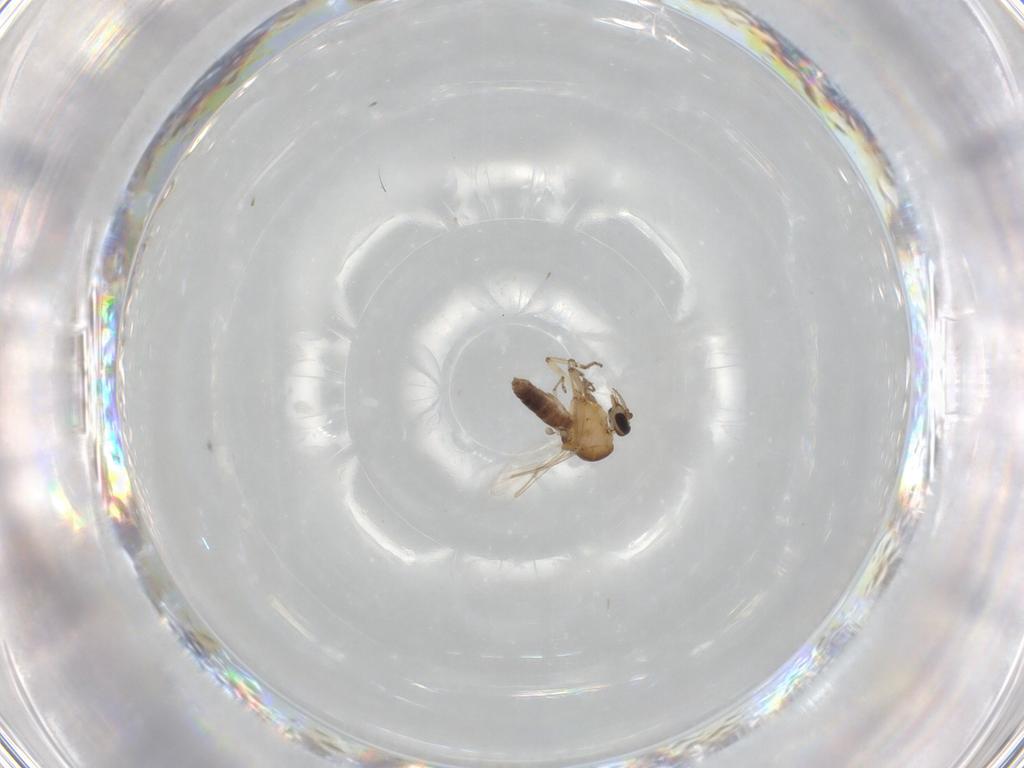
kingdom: Animalia
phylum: Arthropoda
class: Insecta
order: Diptera
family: Ceratopogonidae
